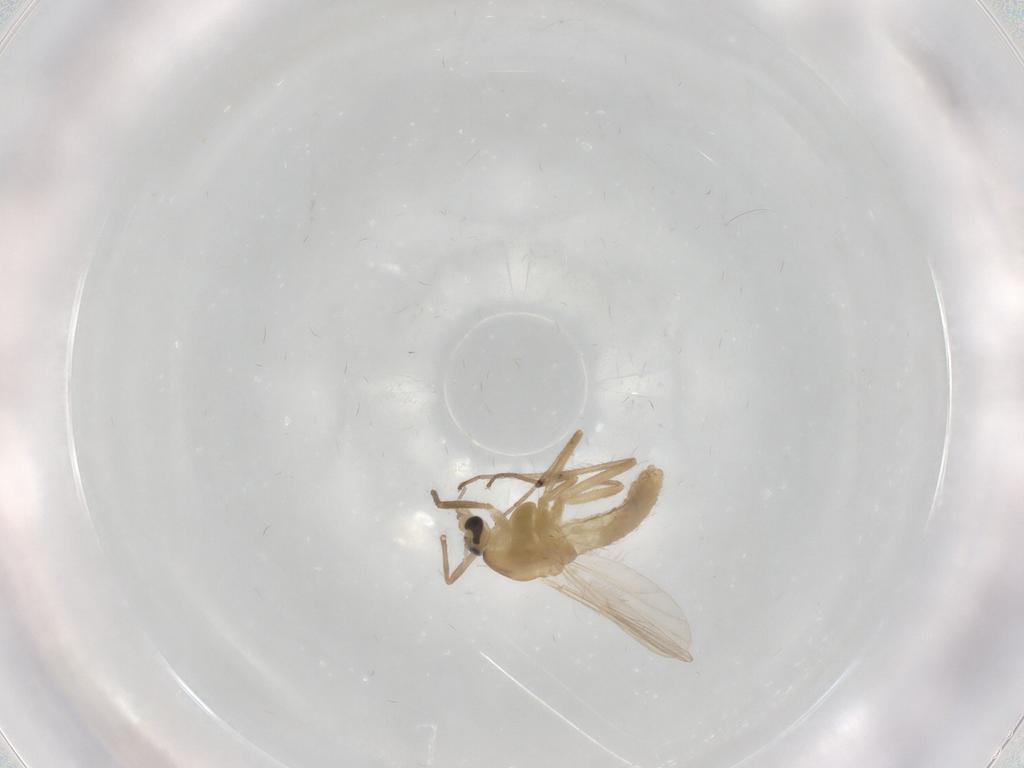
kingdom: Animalia
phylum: Arthropoda
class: Insecta
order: Diptera
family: Chironomidae
